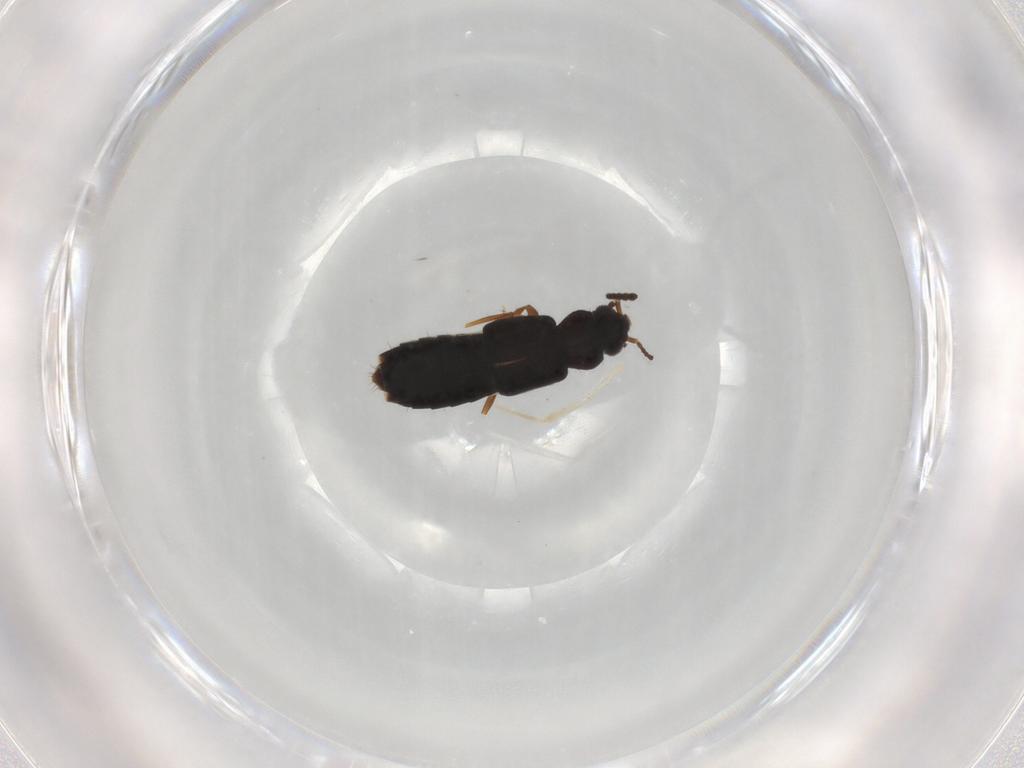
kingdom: Animalia
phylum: Arthropoda
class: Insecta
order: Coleoptera
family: Staphylinidae
